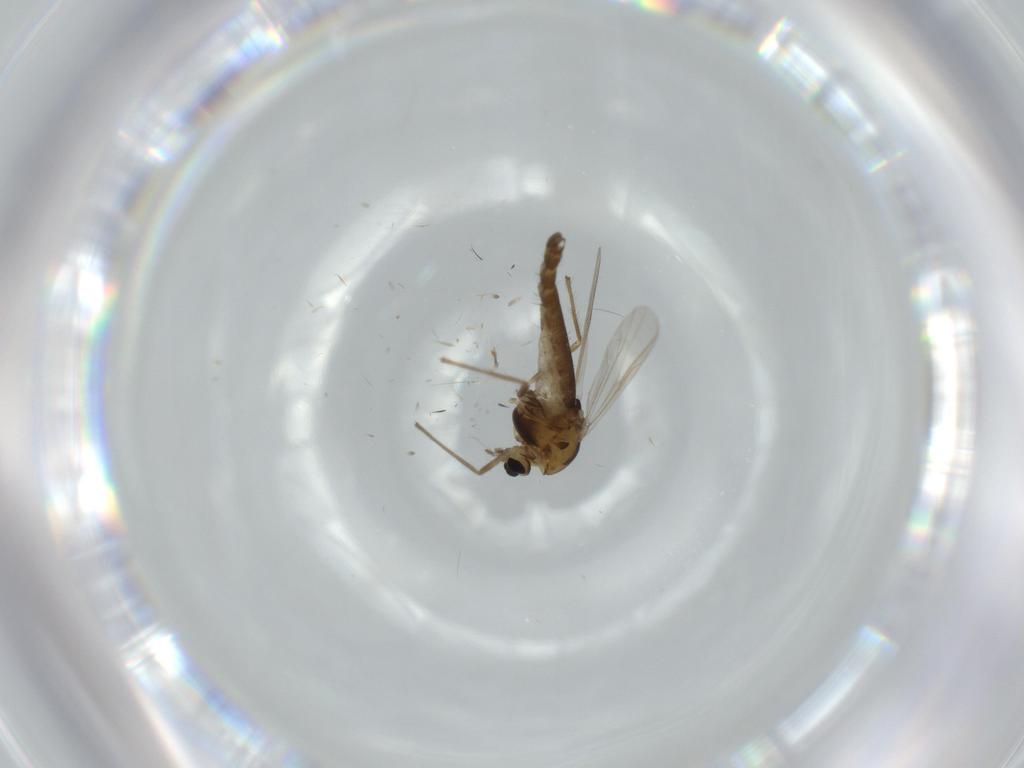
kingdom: Animalia
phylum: Arthropoda
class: Insecta
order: Diptera
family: Chironomidae
